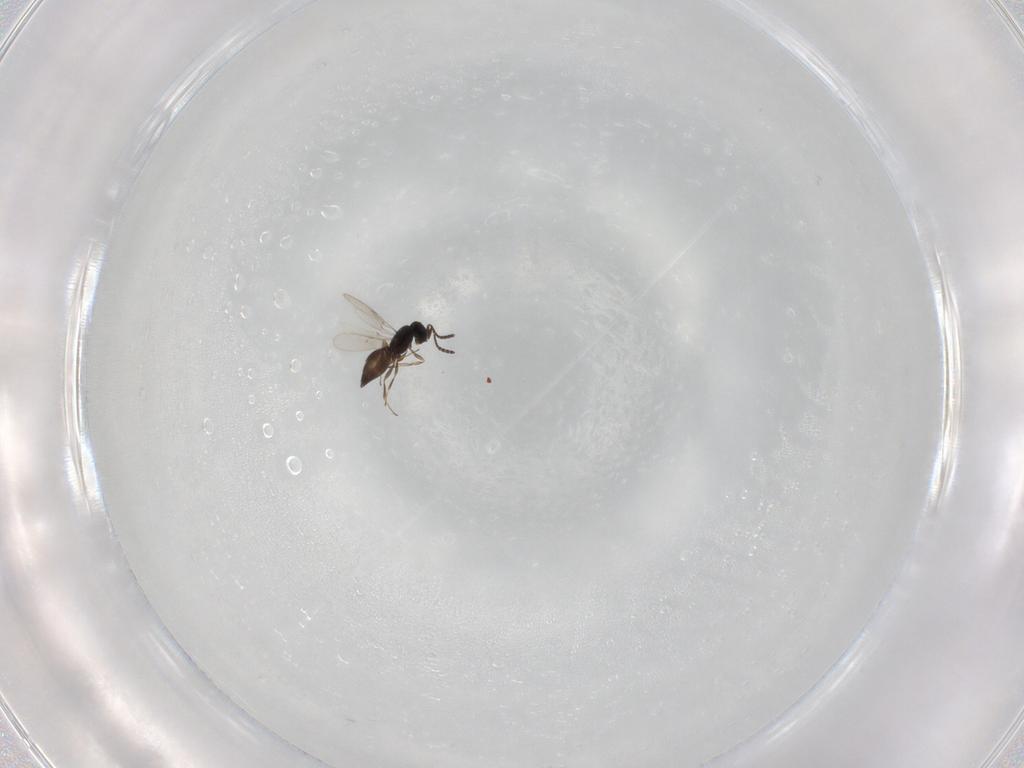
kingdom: Animalia
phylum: Arthropoda
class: Insecta
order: Hymenoptera
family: Scelionidae
